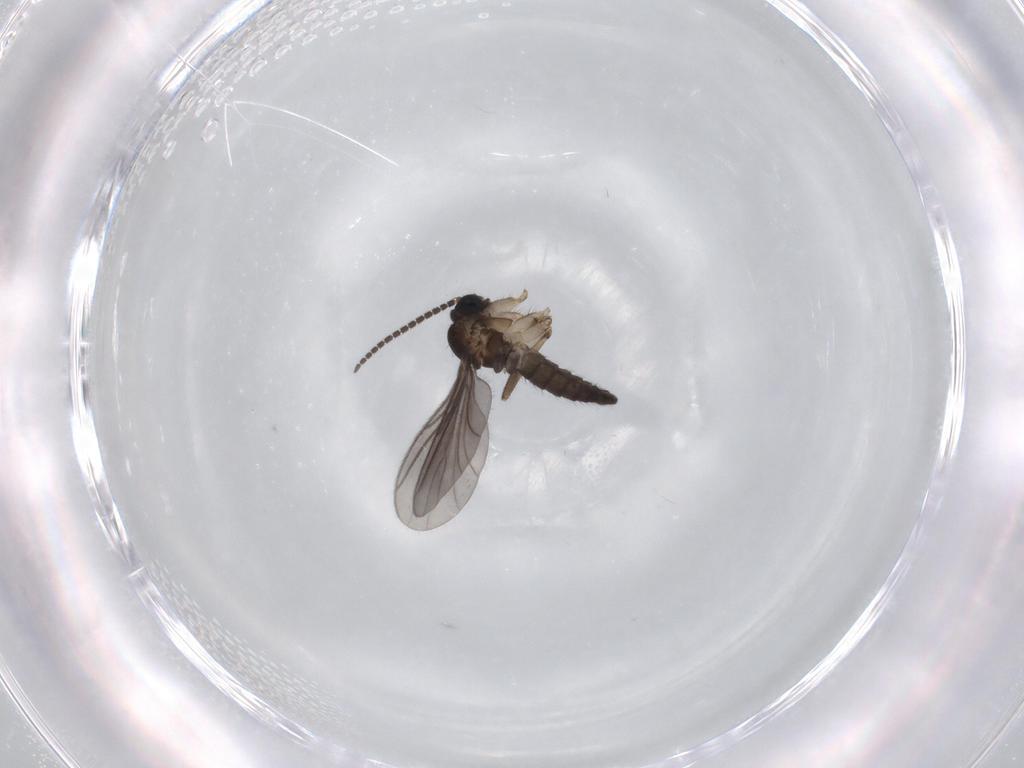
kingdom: Animalia
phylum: Arthropoda
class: Insecta
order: Diptera
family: Sciaridae
